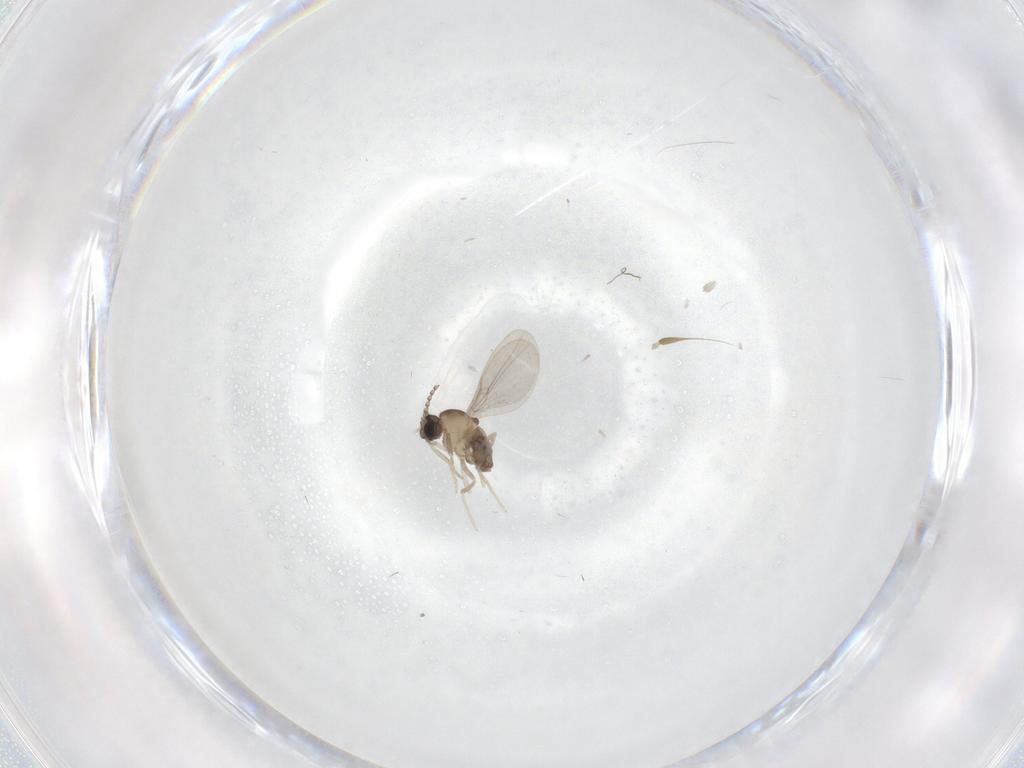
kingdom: Animalia
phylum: Arthropoda
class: Insecta
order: Diptera
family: Cecidomyiidae
